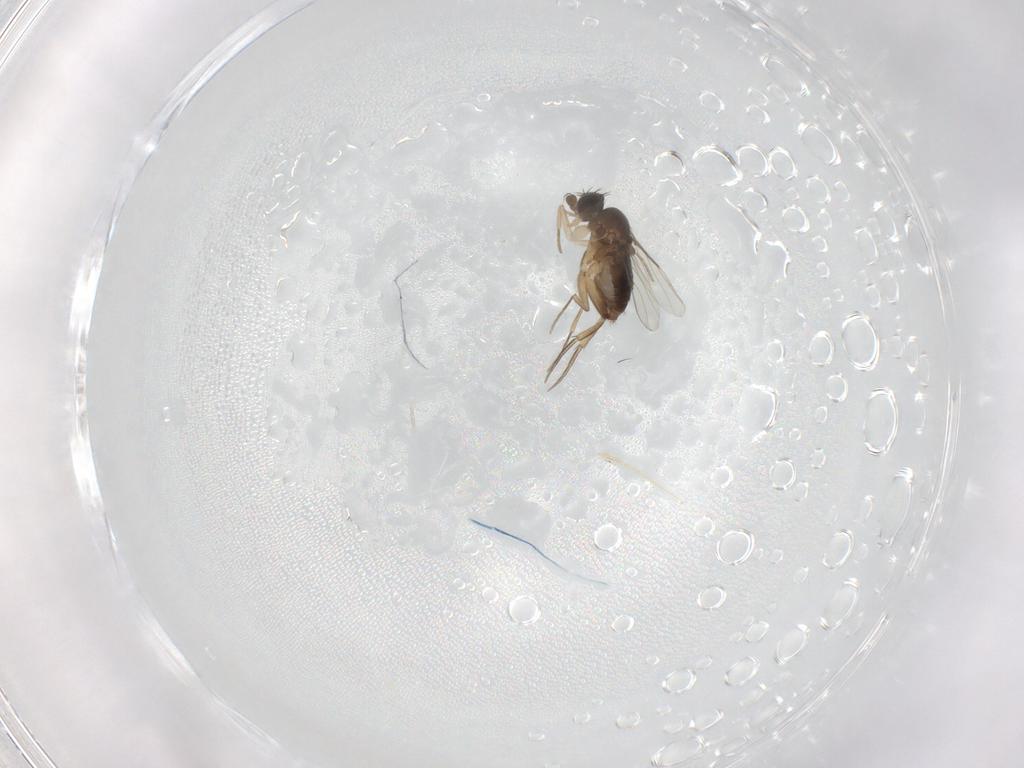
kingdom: Animalia
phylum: Arthropoda
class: Insecta
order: Diptera
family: Phoridae
